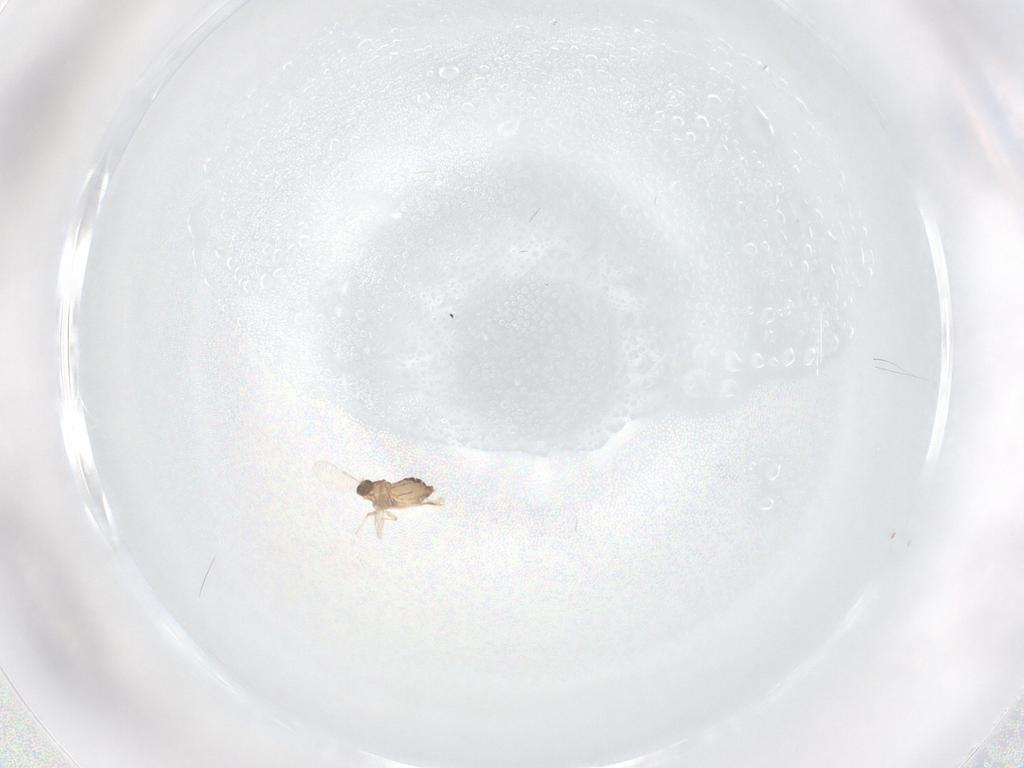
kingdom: Animalia
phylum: Arthropoda
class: Insecta
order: Diptera
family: Chironomidae
